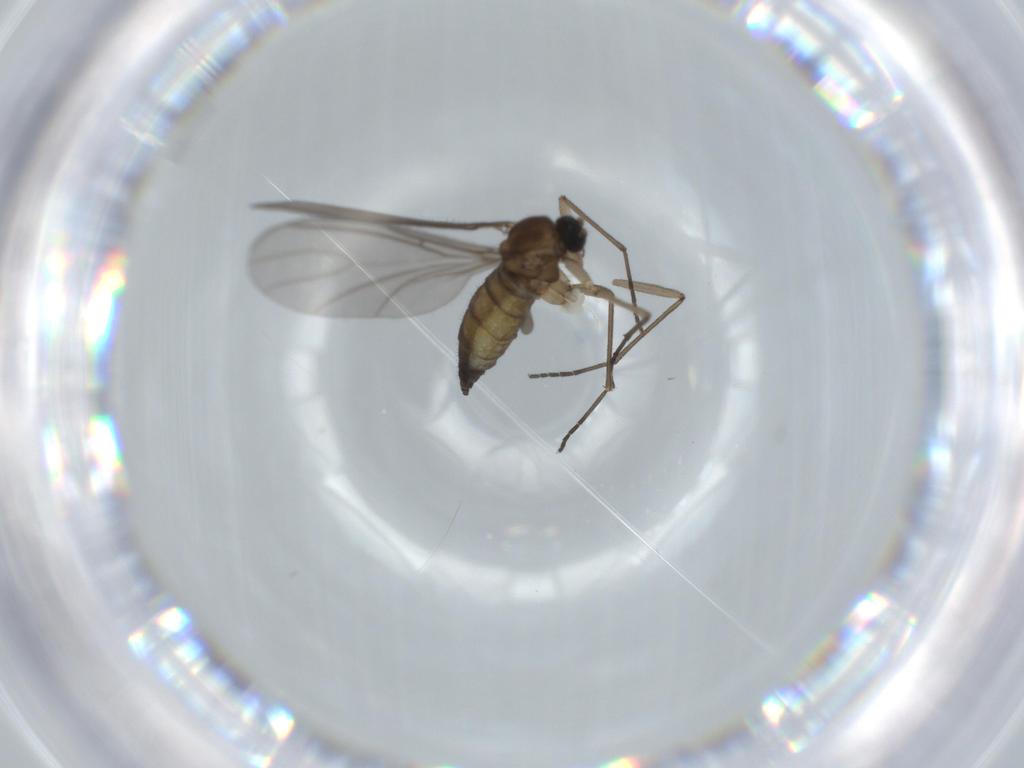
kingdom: Animalia
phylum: Arthropoda
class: Insecta
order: Diptera
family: Sciaridae
